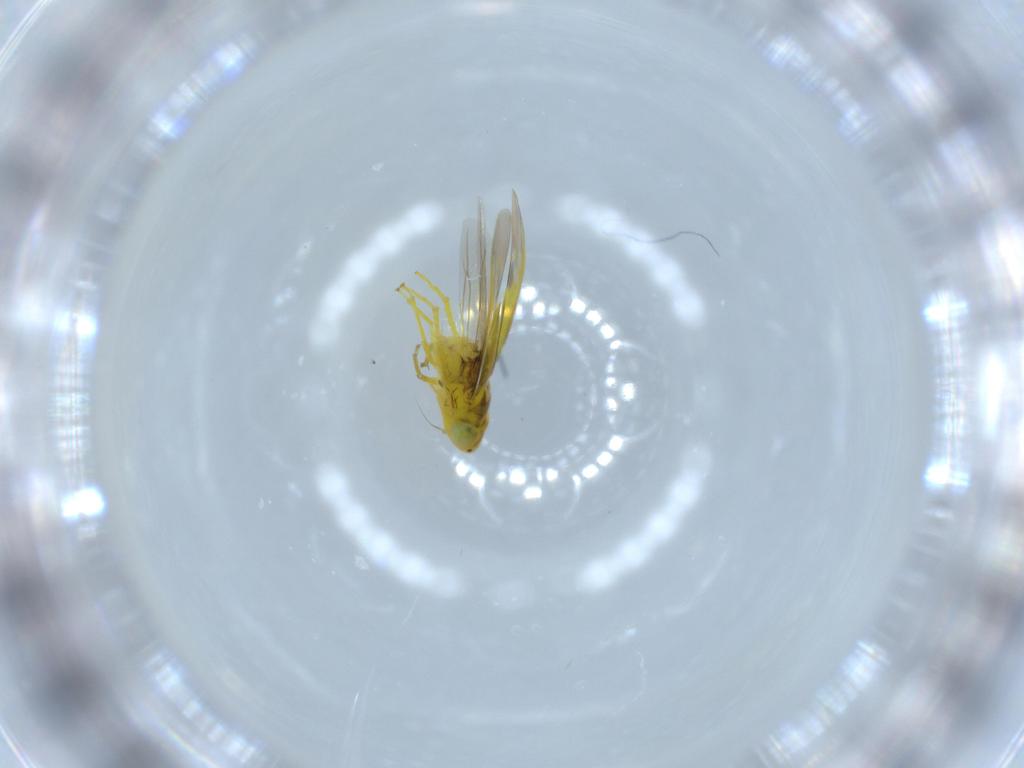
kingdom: Animalia
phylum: Arthropoda
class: Insecta
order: Hemiptera
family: Cicadellidae
